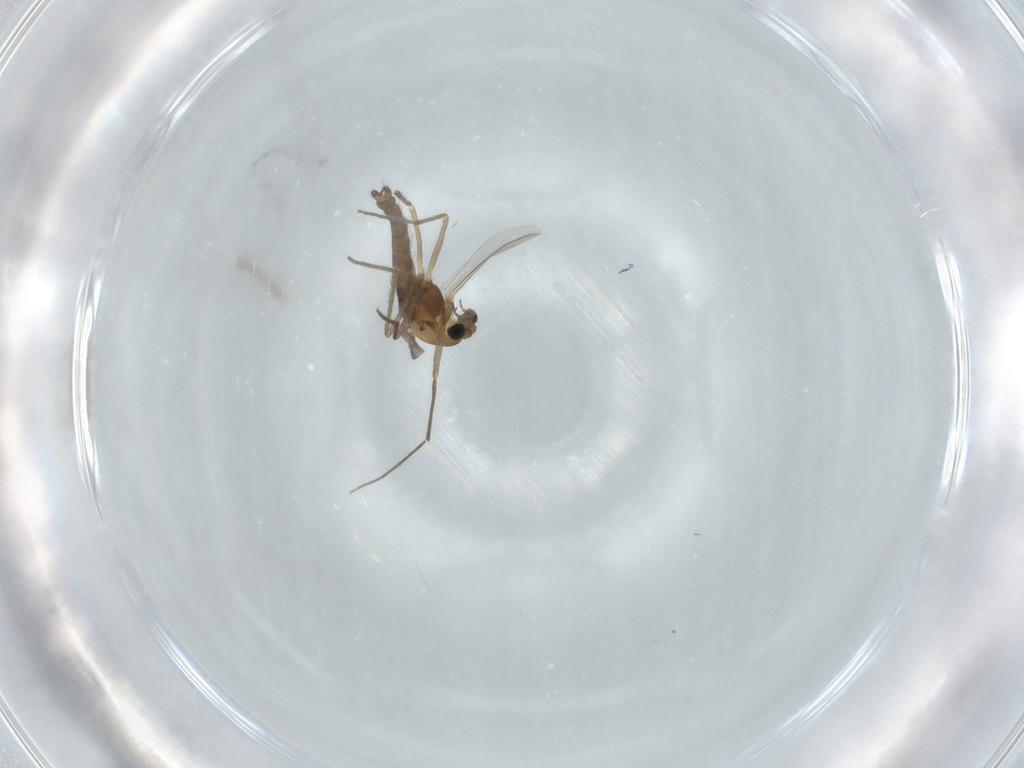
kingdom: Animalia
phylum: Arthropoda
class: Insecta
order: Diptera
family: Chironomidae
